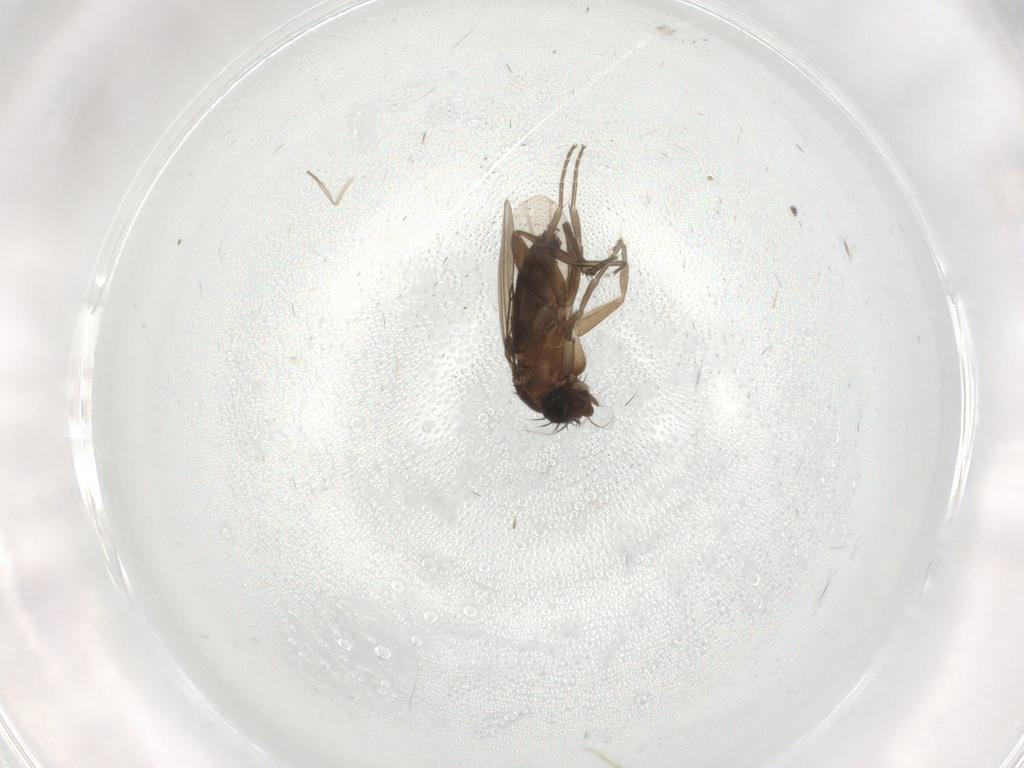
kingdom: Animalia
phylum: Arthropoda
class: Insecta
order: Diptera
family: Phoridae
